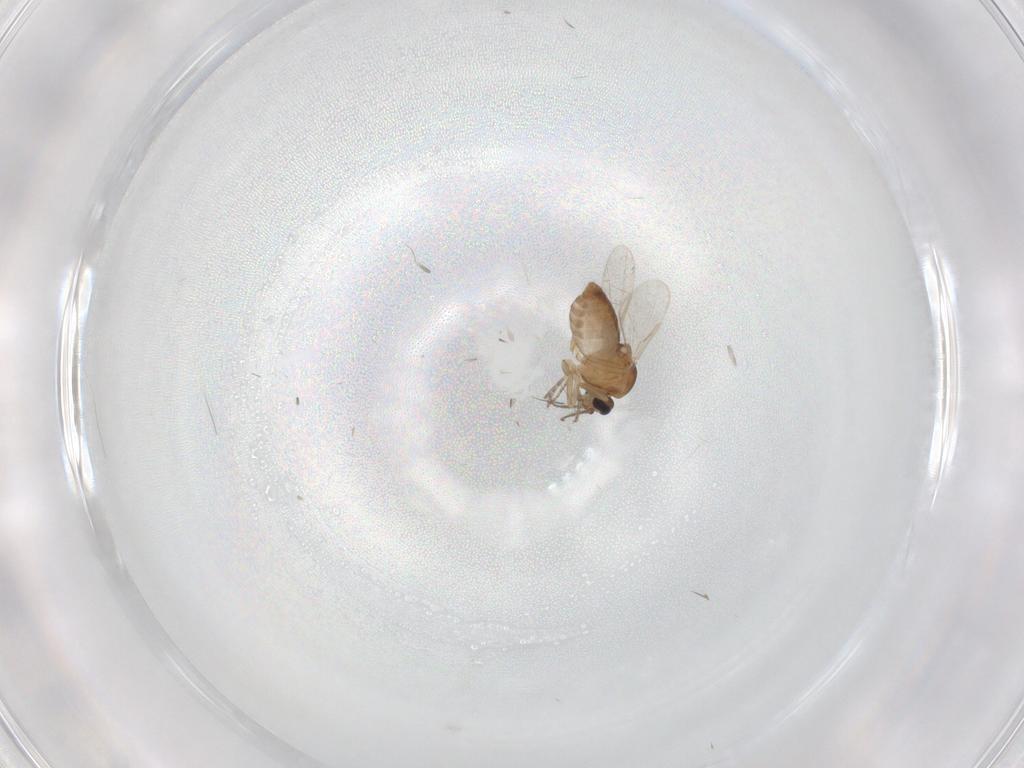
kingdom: Animalia
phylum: Arthropoda
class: Insecta
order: Diptera
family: Ceratopogonidae
